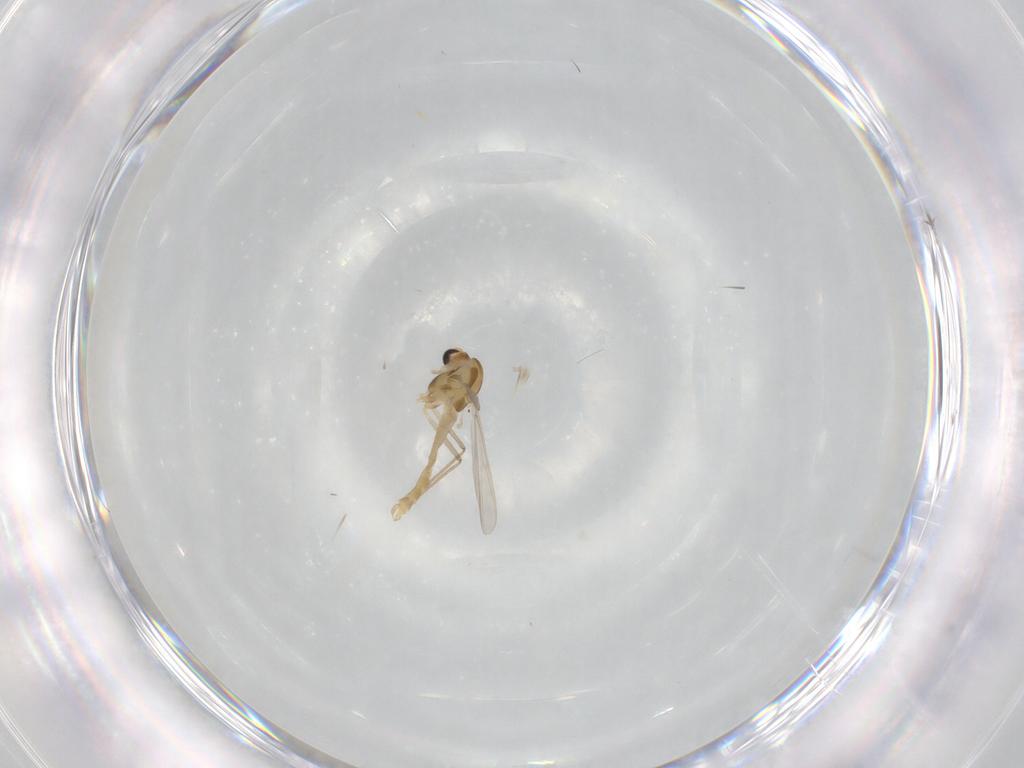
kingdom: Animalia
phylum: Arthropoda
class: Insecta
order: Diptera
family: Chironomidae
